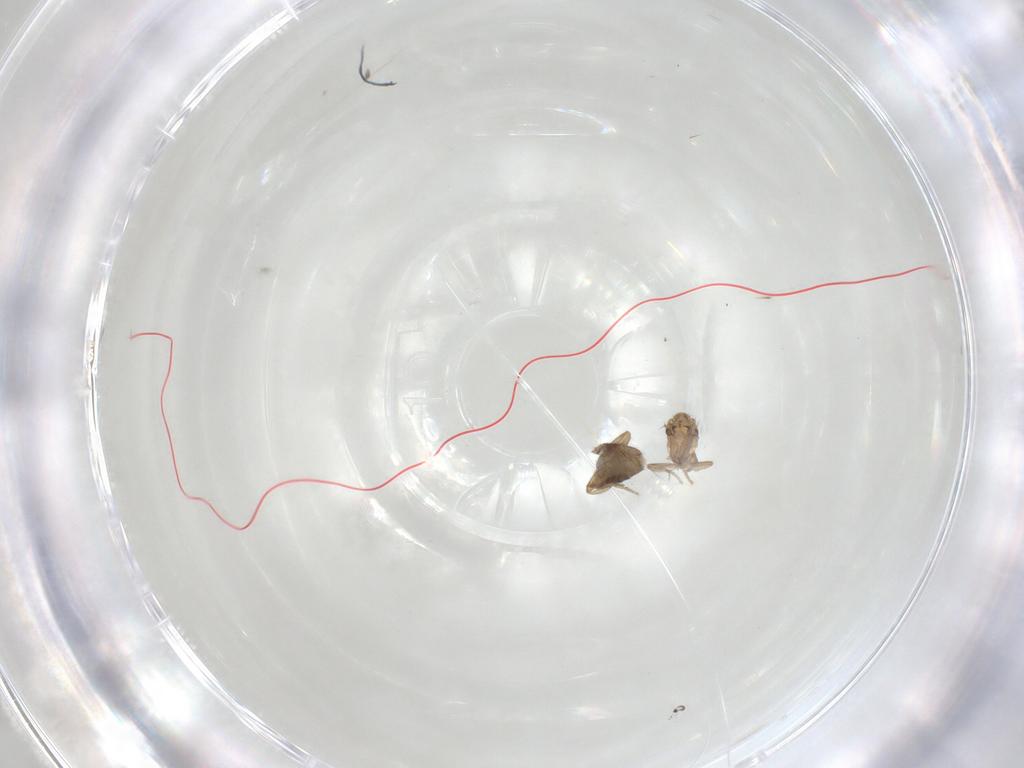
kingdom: Animalia
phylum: Arthropoda
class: Insecta
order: Diptera
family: Phoridae
